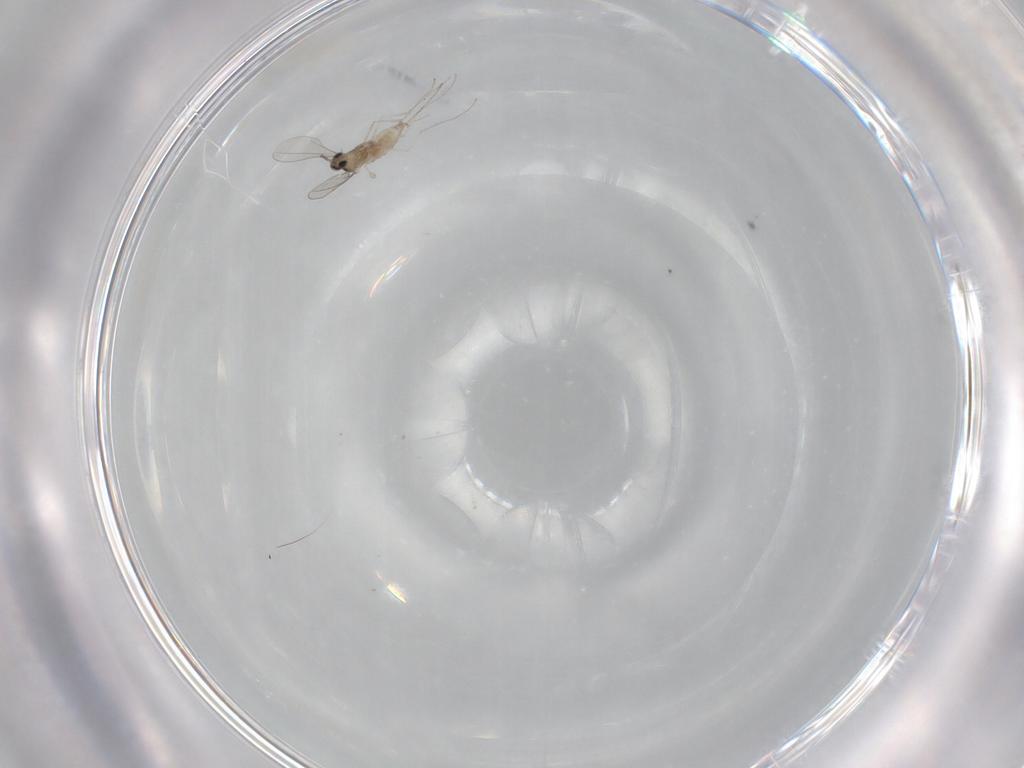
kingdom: Animalia
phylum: Arthropoda
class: Insecta
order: Diptera
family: Cecidomyiidae
